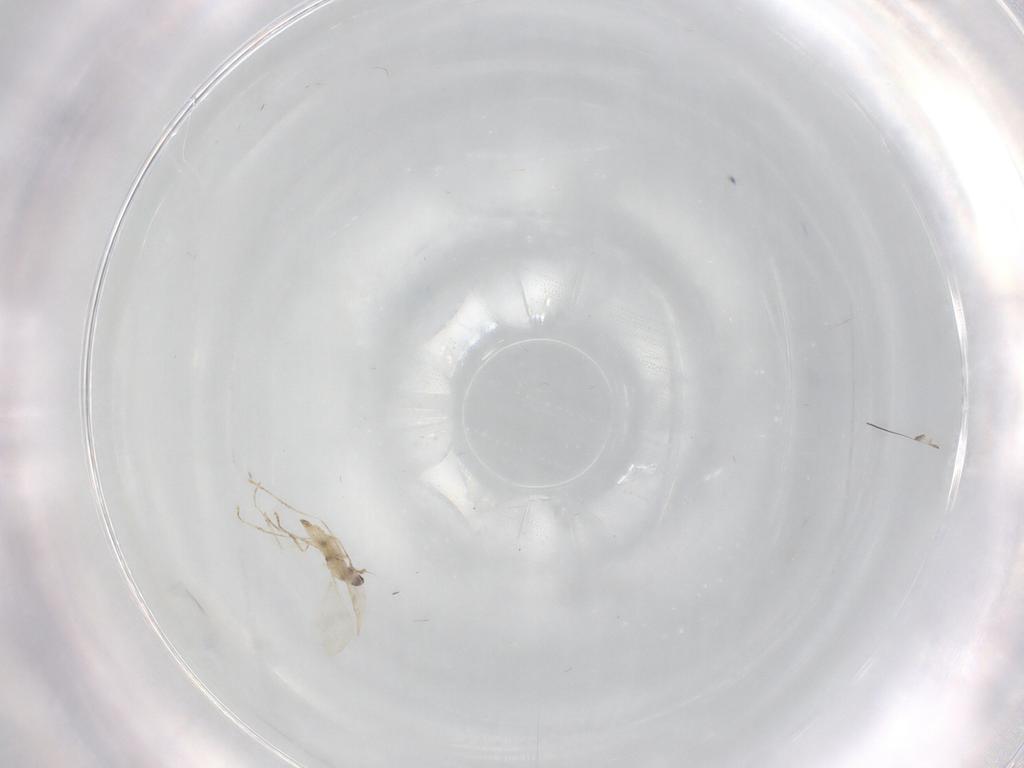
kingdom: Animalia
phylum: Arthropoda
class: Insecta
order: Diptera
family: Cecidomyiidae
